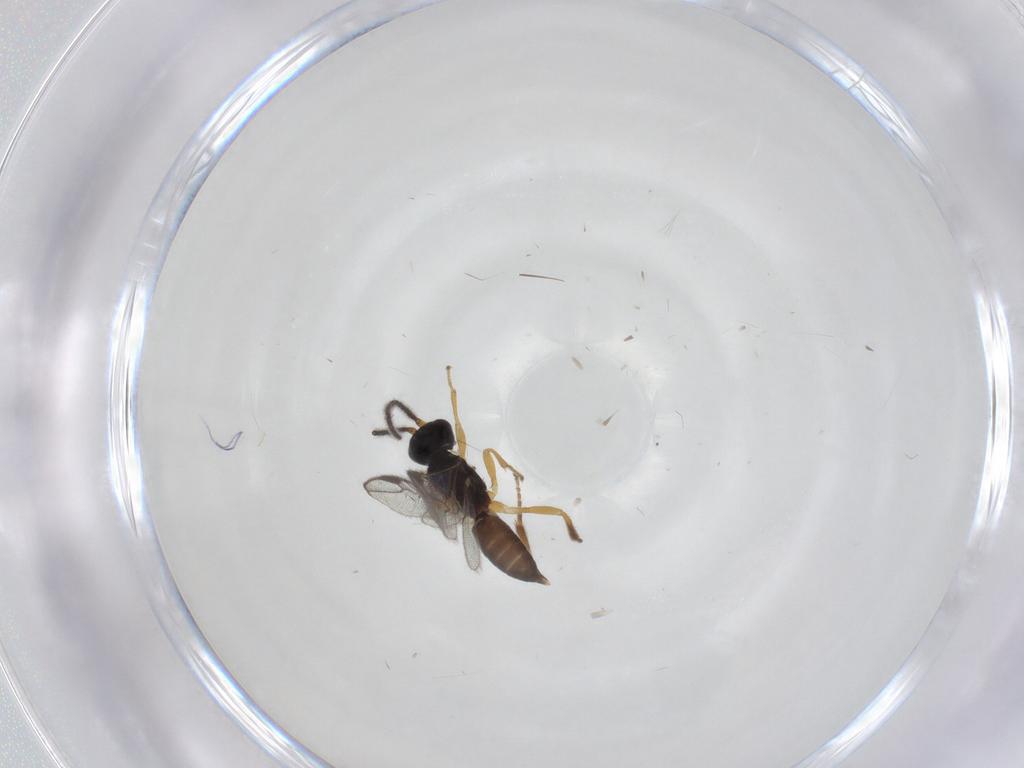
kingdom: Animalia
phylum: Arthropoda
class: Insecta
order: Hymenoptera
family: Braconidae
